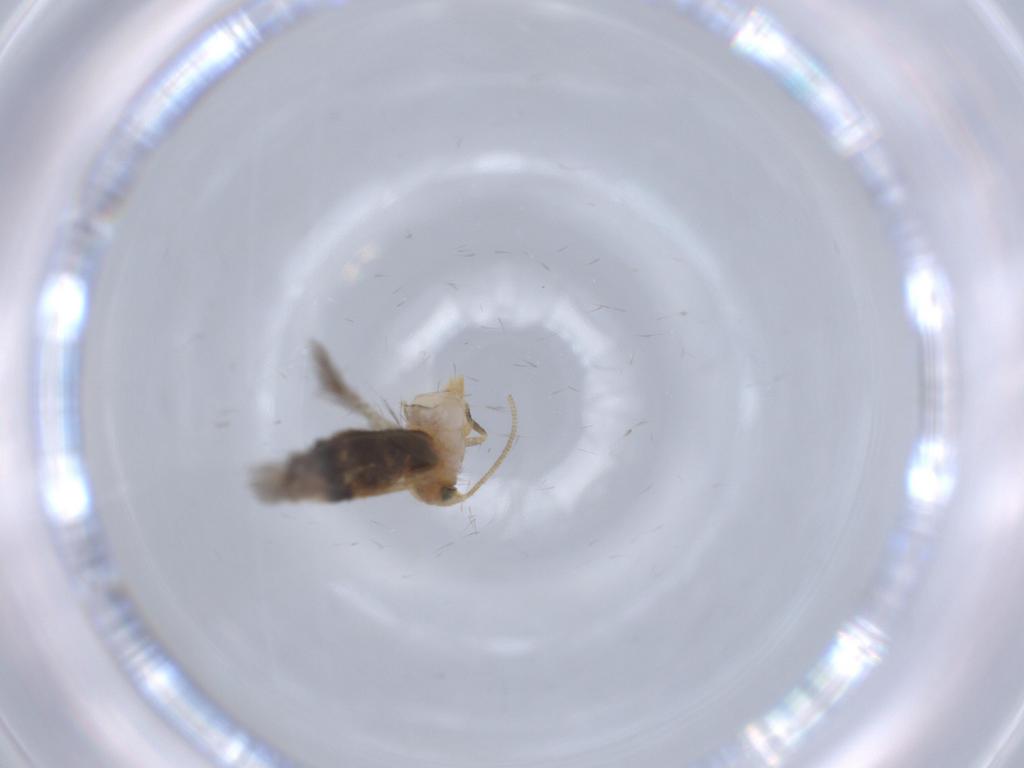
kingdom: Animalia
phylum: Arthropoda
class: Insecta
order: Lepidoptera
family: Nepticulidae
